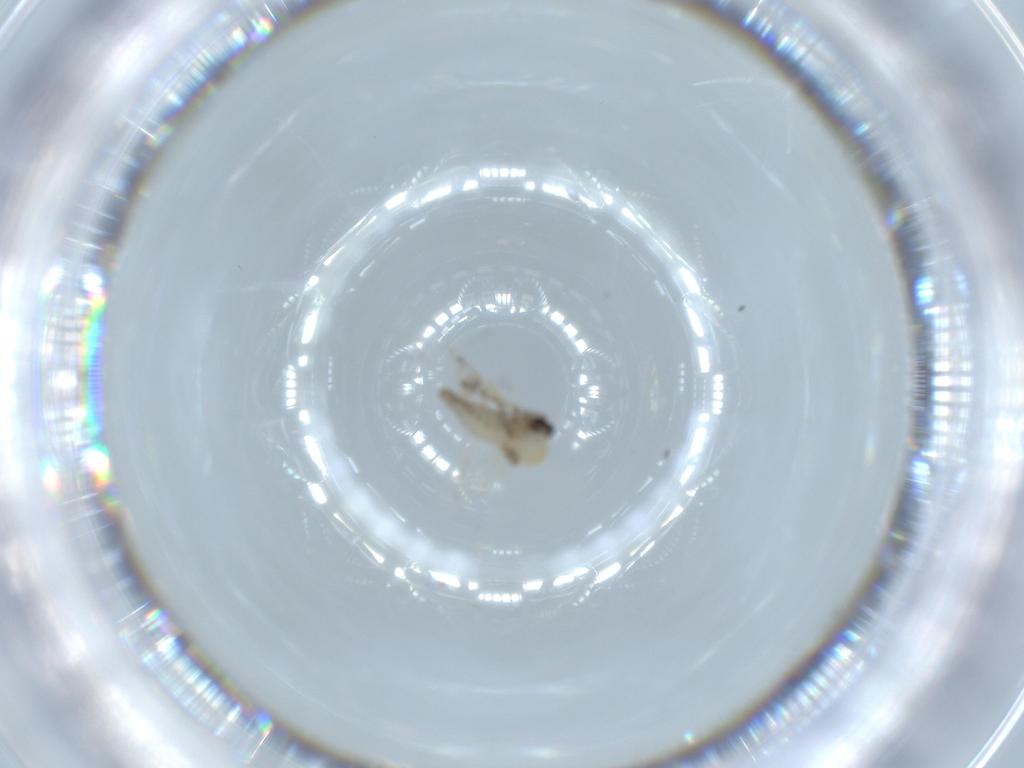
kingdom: Animalia
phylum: Arthropoda
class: Insecta
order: Diptera
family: Ceratopogonidae
